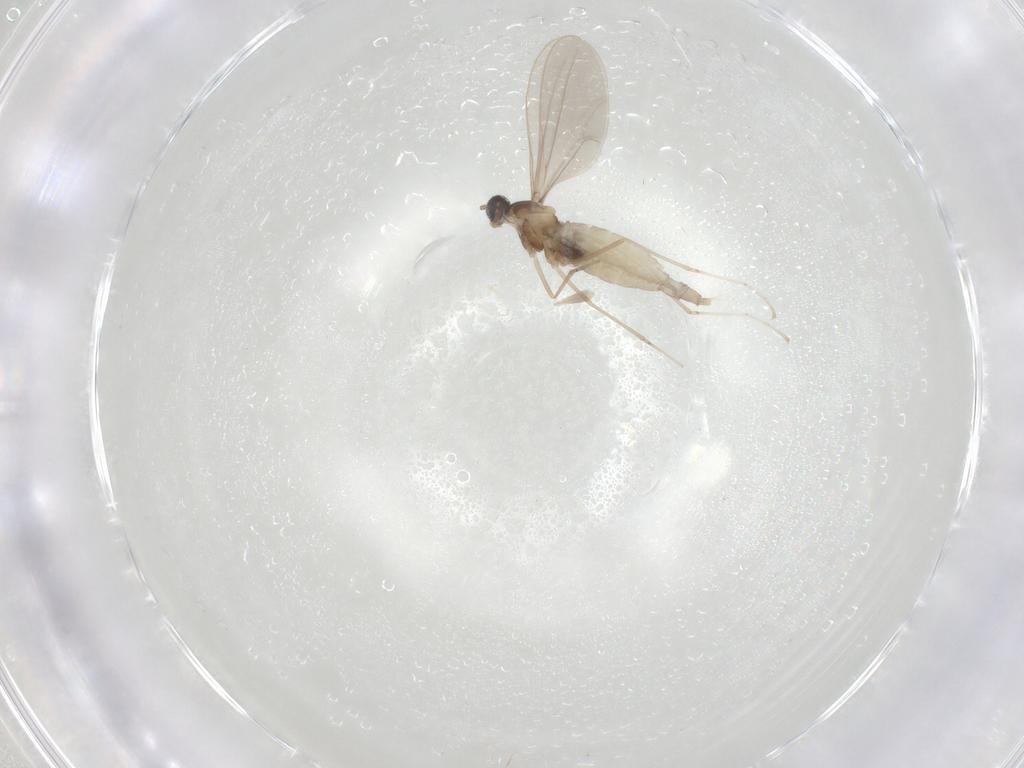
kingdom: Animalia
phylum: Arthropoda
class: Insecta
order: Diptera
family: Cecidomyiidae
